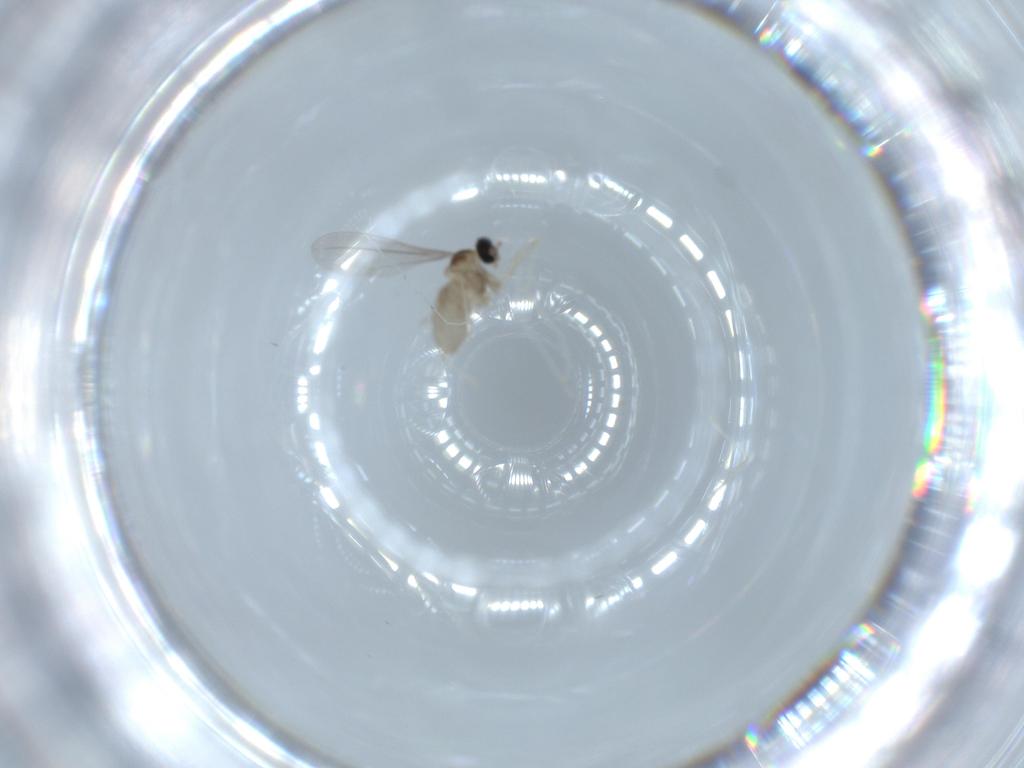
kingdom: Animalia
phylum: Arthropoda
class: Insecta
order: Diptera
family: Cecidomyiidae
